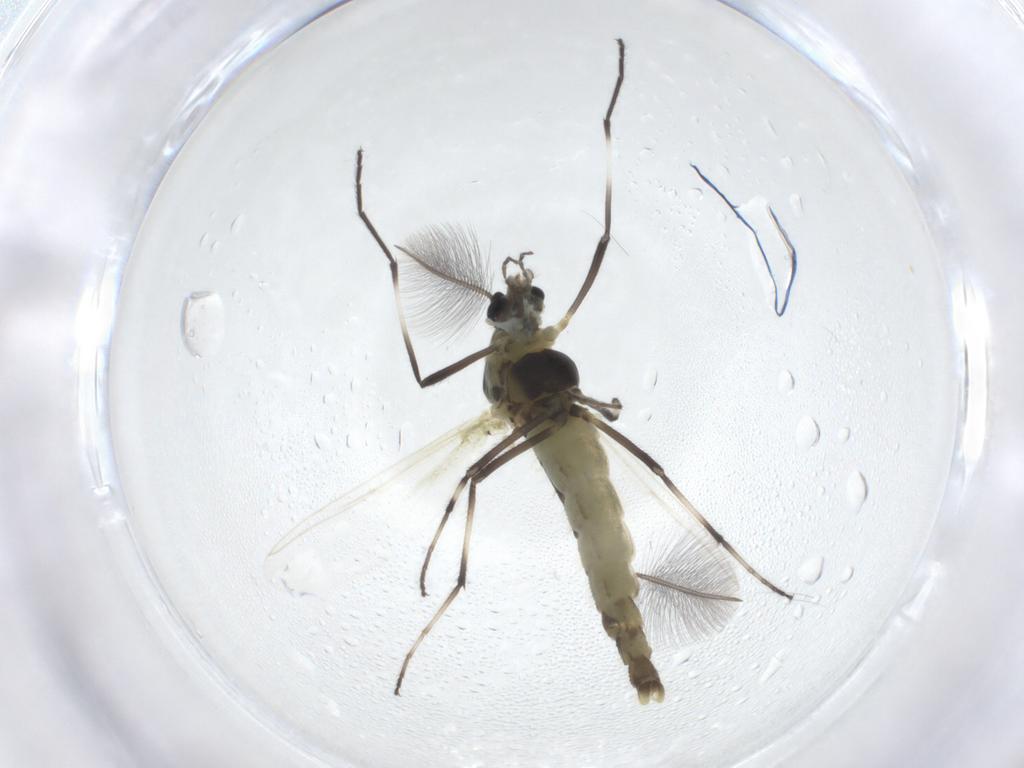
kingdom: Animalia
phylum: Arthropoda
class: Insecta
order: Diptera
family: Chironomidae
